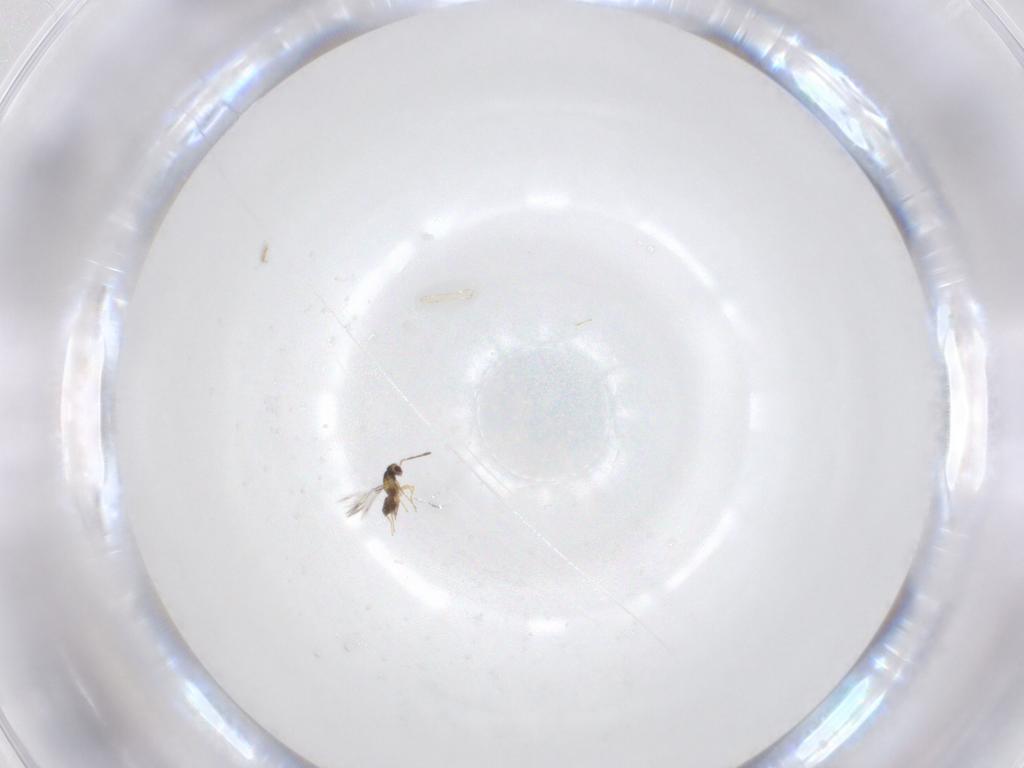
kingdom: Animalia
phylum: Arthropoda
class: Insecta
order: Hymenoptera
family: Mymaridae
